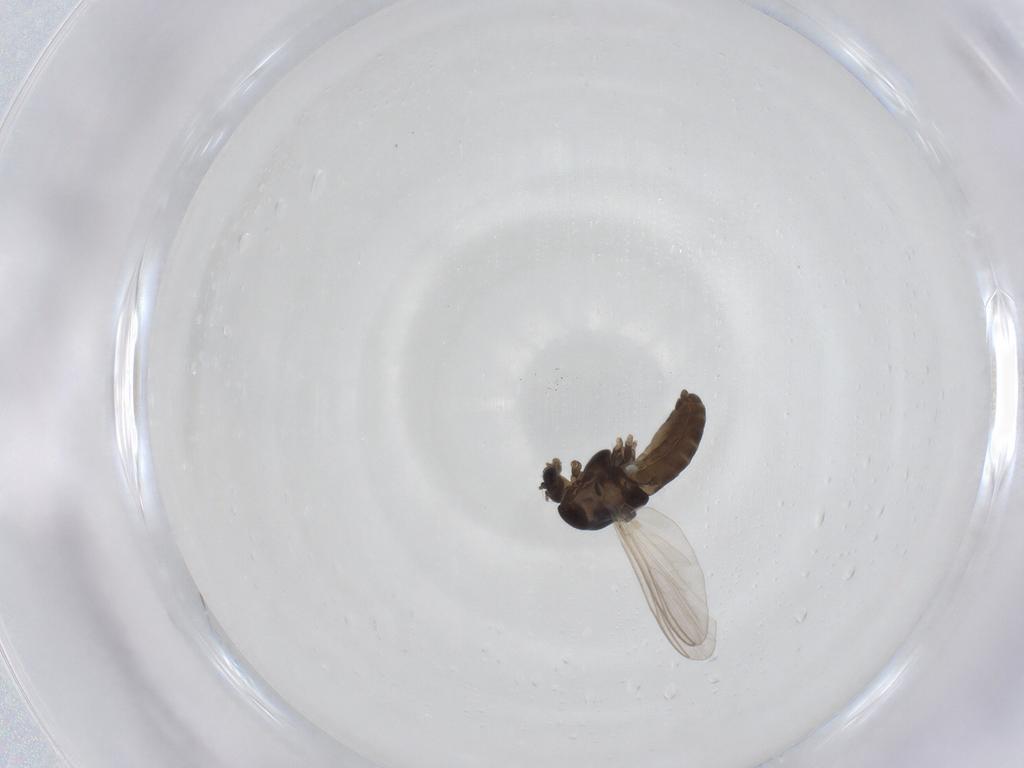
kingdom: Animalia
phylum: Arthropoda
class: Insecta
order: Diptera
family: Chironomidae
